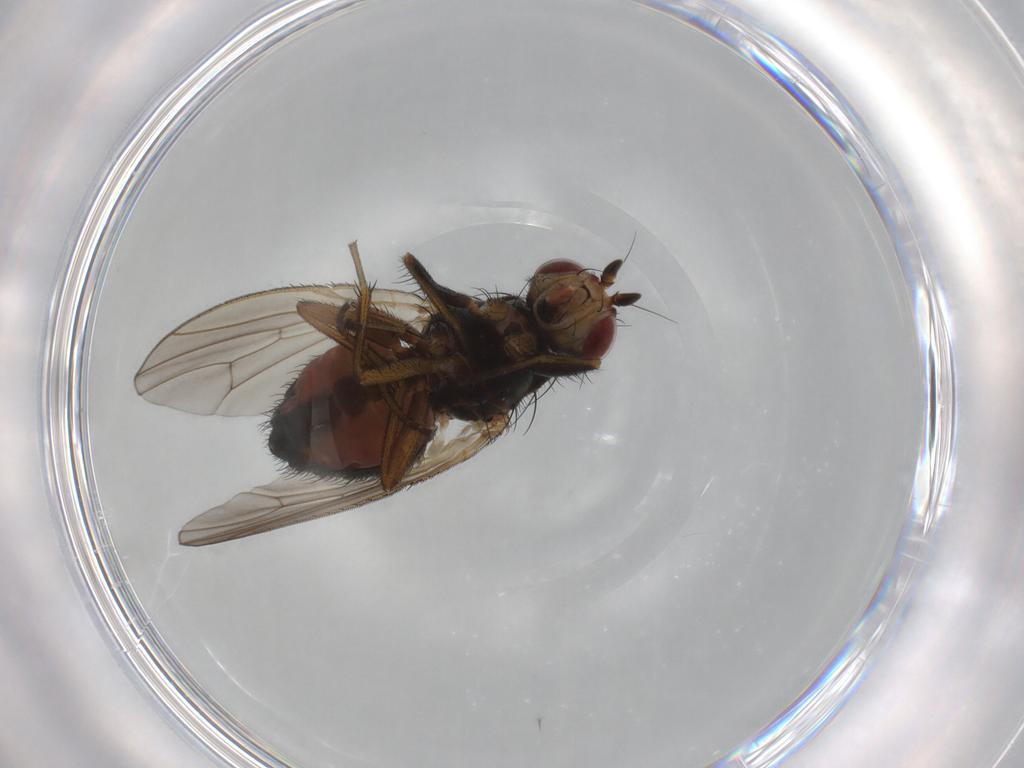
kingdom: Animalia
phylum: Arthropoda
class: Insecta
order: Diptera
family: Heleomyzidae
